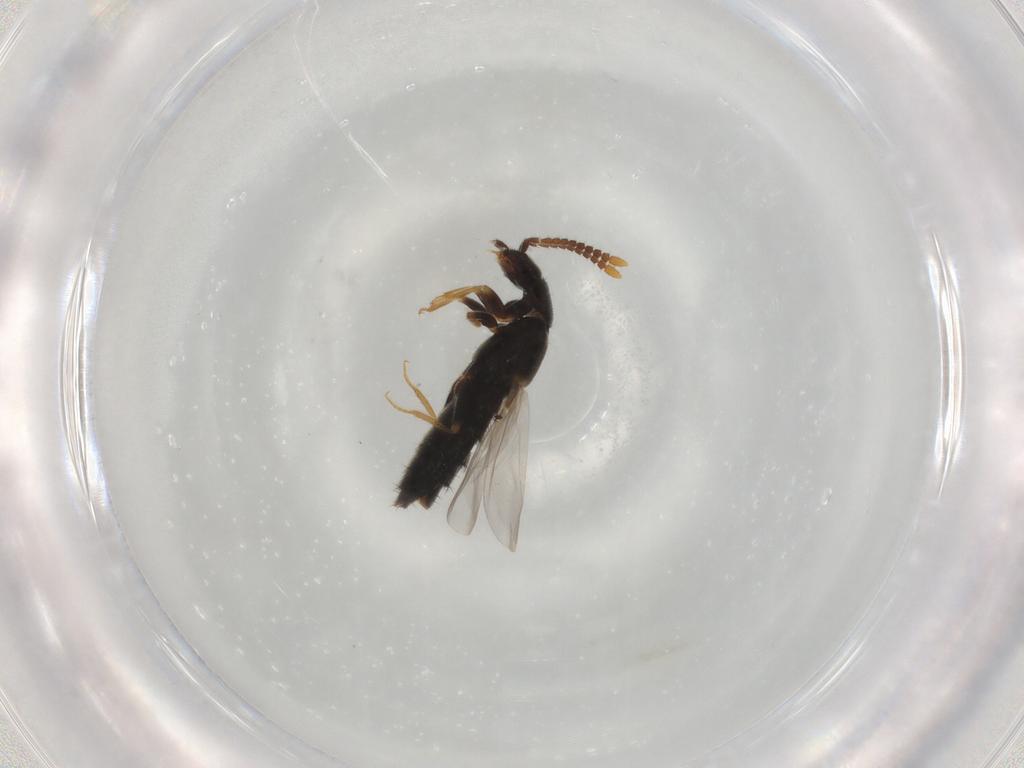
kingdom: Animalia
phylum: Arthropoda
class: Insecta
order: Coleoptera
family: Staphylinidae
